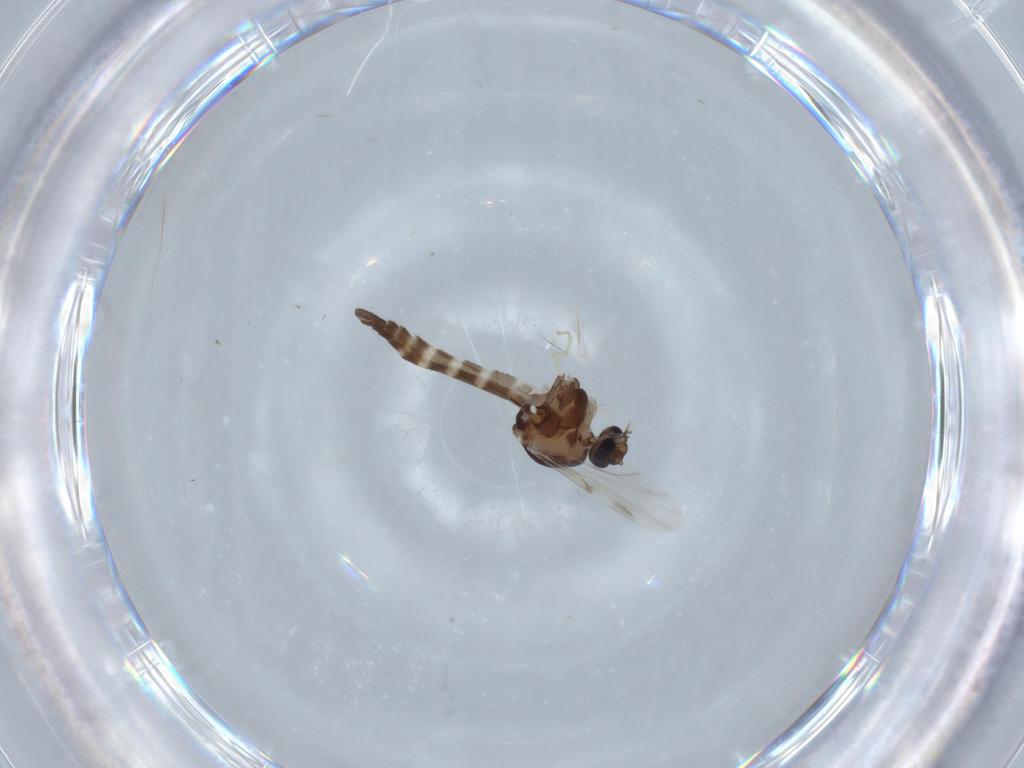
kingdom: Animalia
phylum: Arthropoda
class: Insecta
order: Diptera
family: Ceratopogonidae
